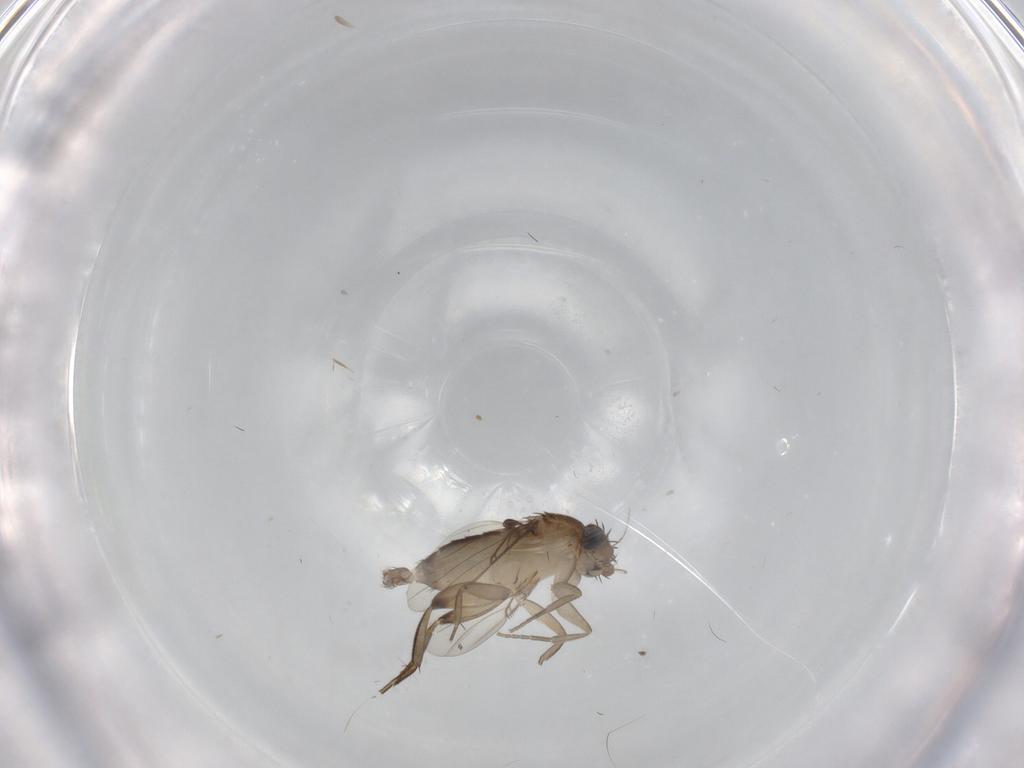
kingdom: Animalia
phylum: Arthropoda
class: Insecta
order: Diptera
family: Phoridae
